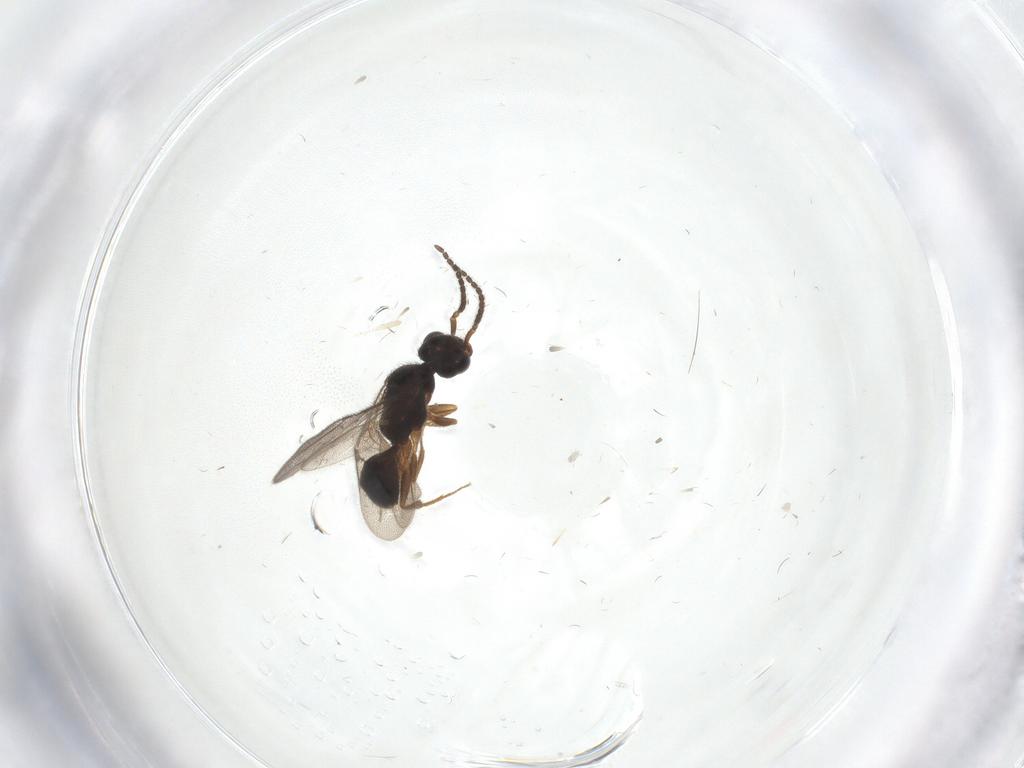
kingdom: Animalia
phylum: Arthropoda
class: Insecta
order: Hymenoptera
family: Bethylidae
